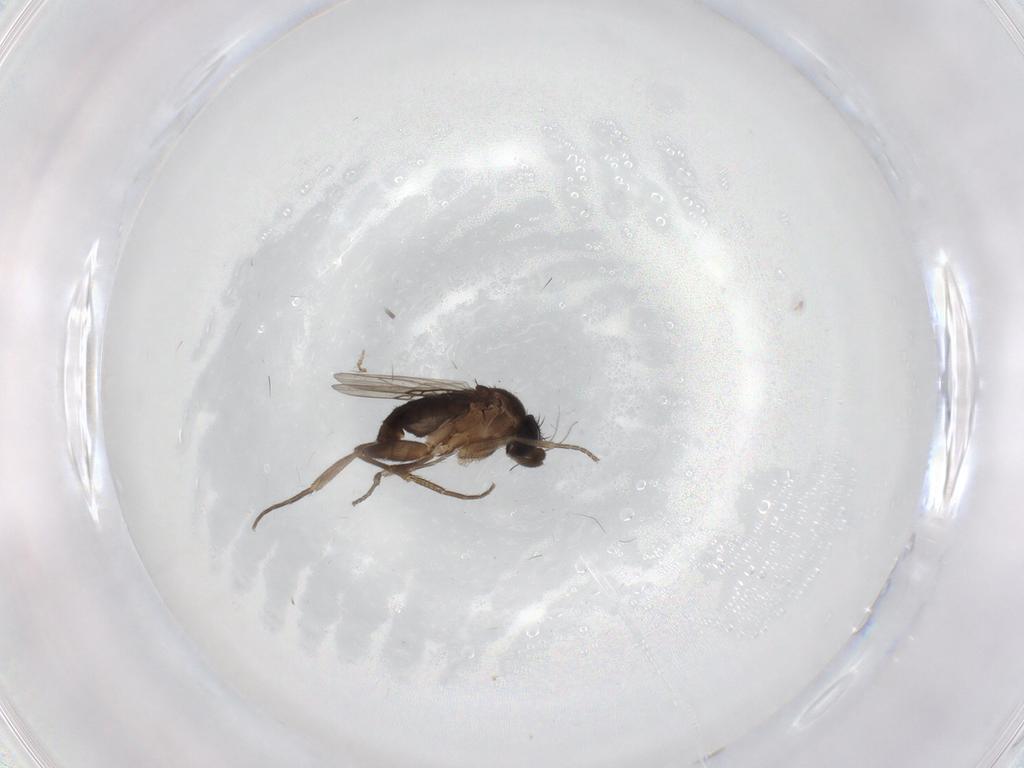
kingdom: Animalia
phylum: Arthropoda
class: Insecta
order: Diptera
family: Phoridae
